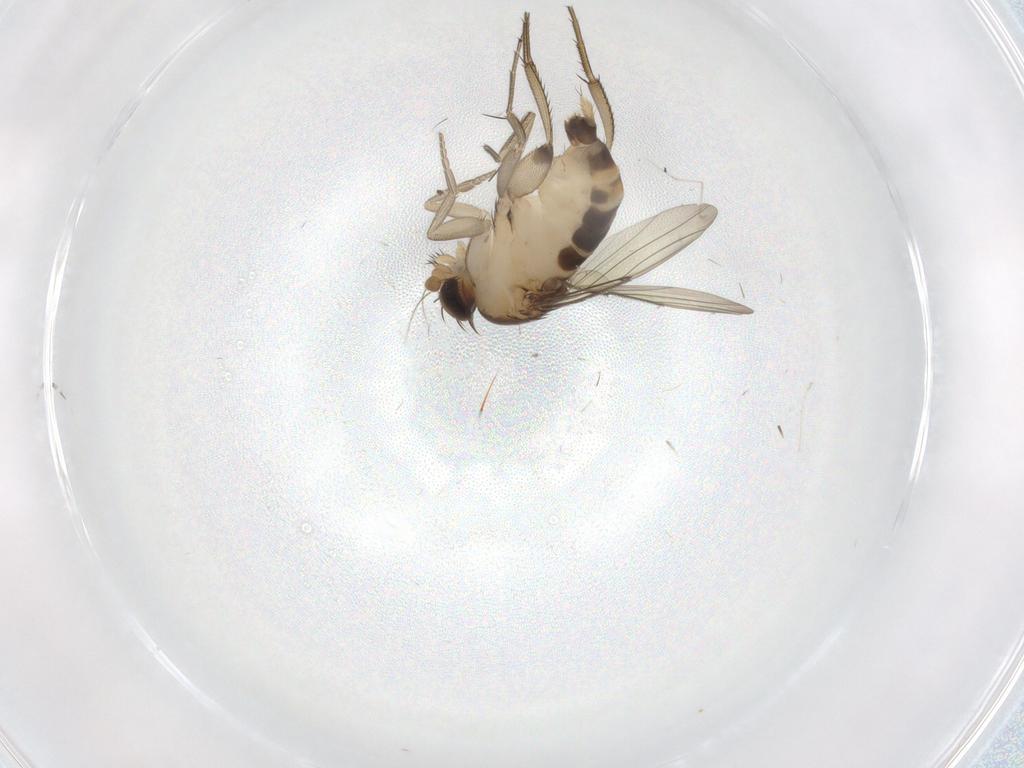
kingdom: Animalia
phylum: Arthropoda
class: Insecta
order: Diptera
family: Phoridae
